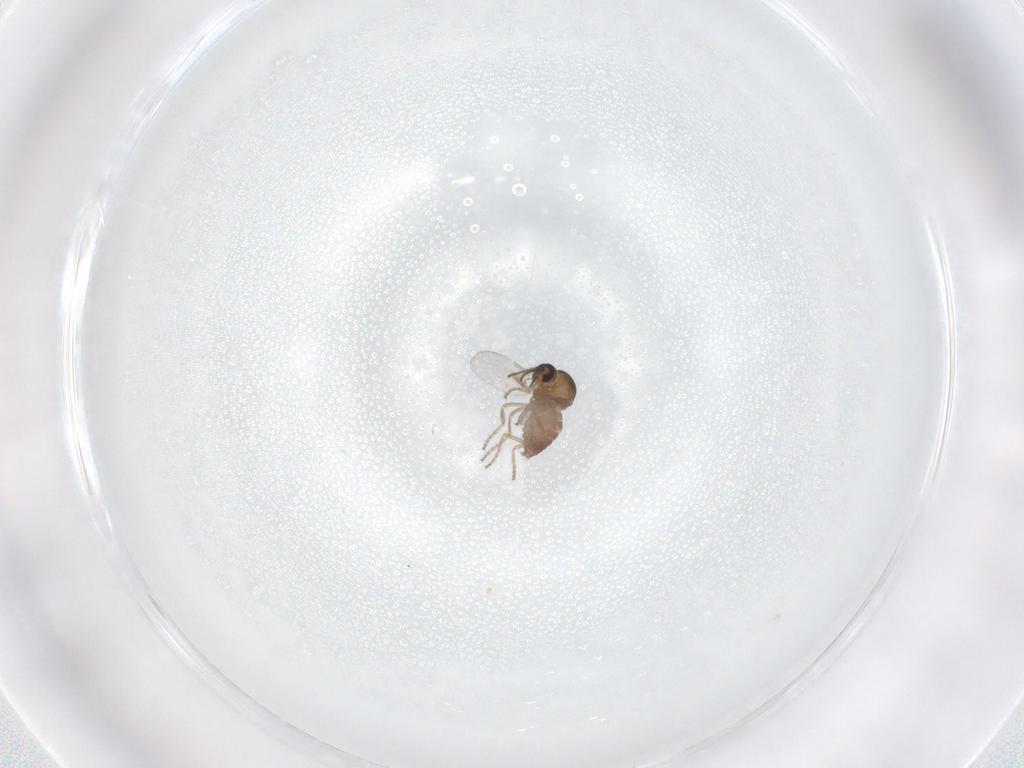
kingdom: Animalia
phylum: Arthropoda
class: Insecta
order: Diptera
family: Ceratopogonidae
